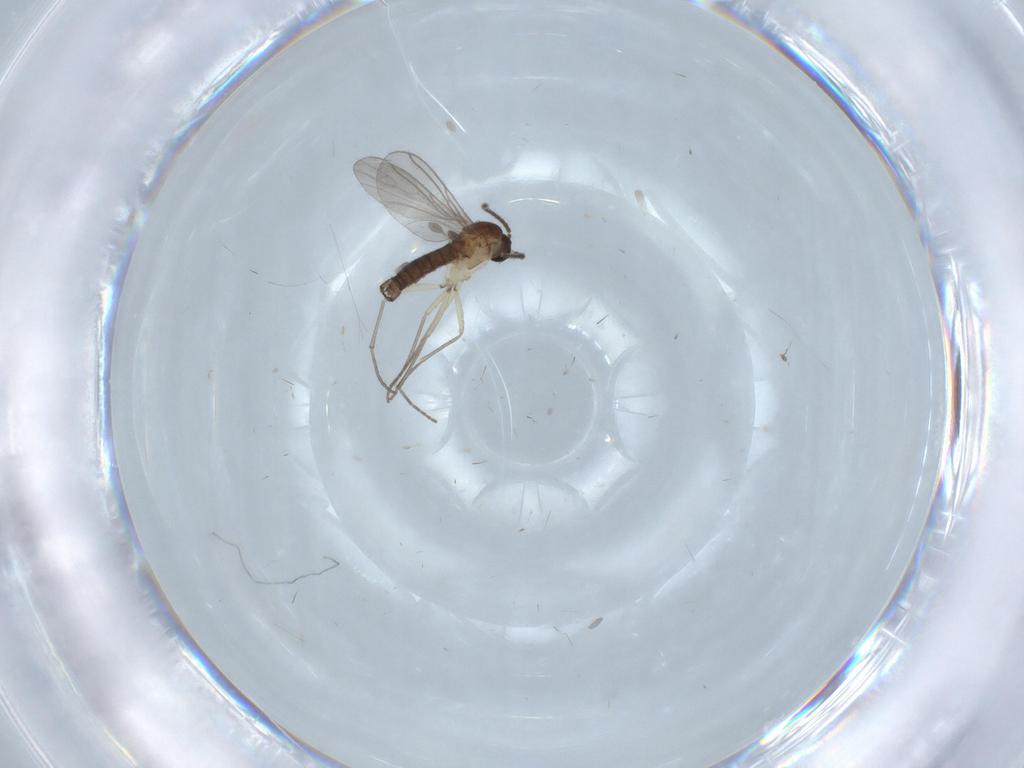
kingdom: Animalia
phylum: Arthropoda
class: Insecta
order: Diptera
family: Sciaridae
